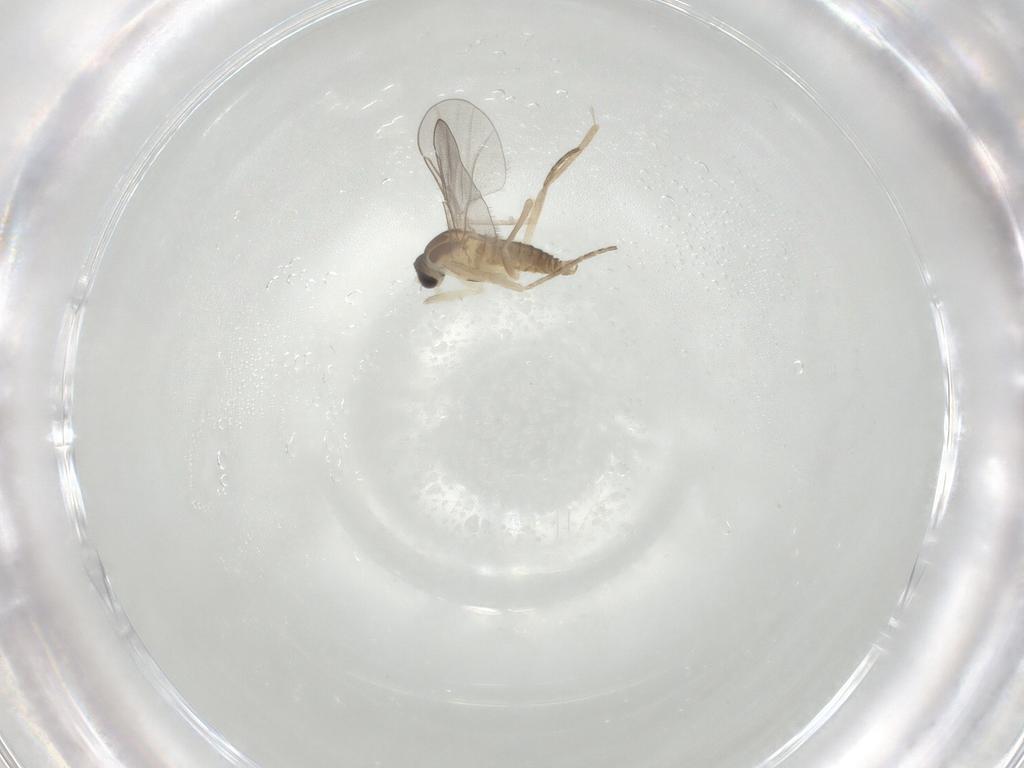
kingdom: Animalia
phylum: Arthropoda
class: Insecta
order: Diptera
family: Cecidomyiidae
